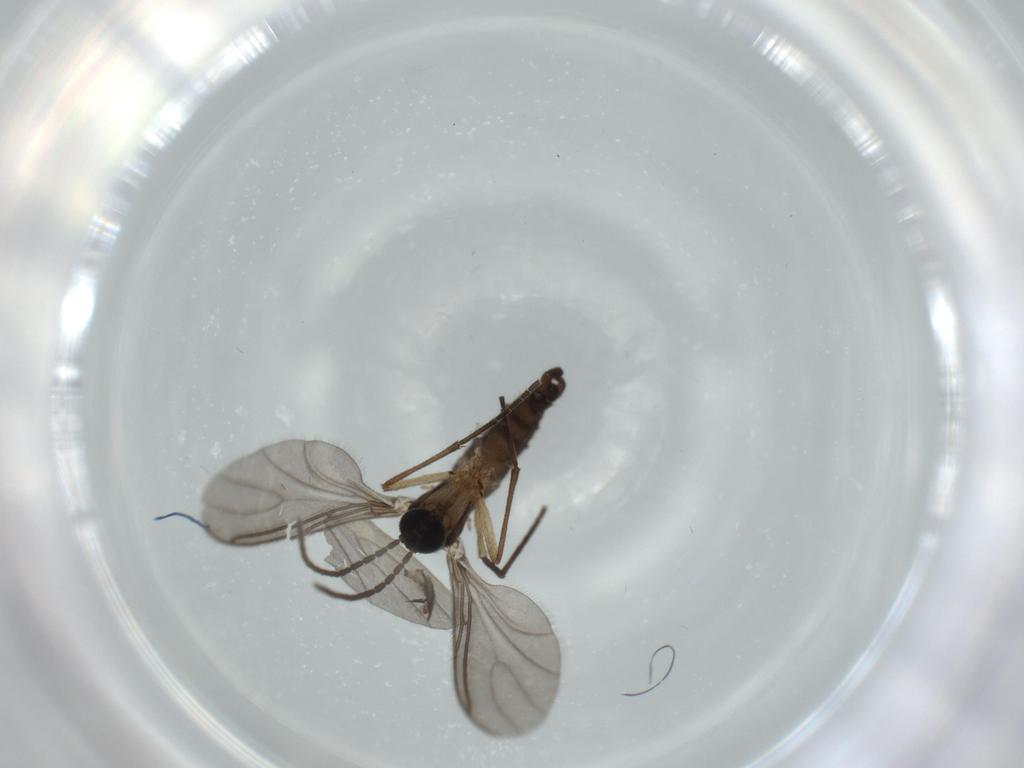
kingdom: Animalia
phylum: Arthropoda
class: Insecta
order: Diptera
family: Sciaridae
